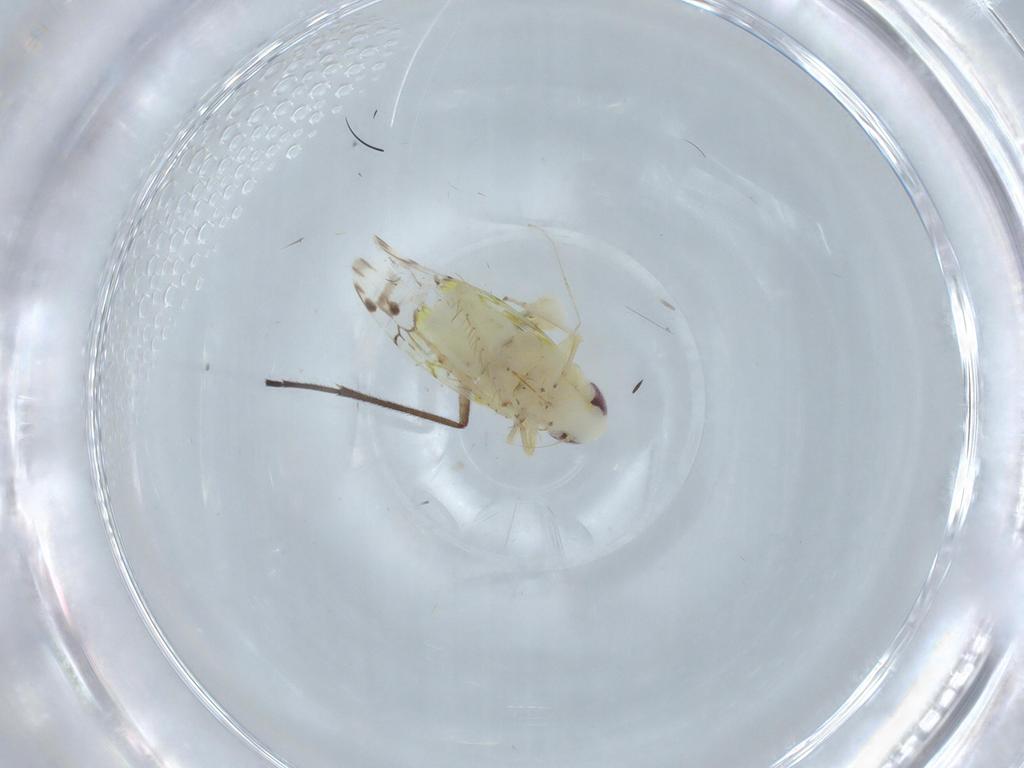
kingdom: Animalia
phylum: Arthropoda
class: Insecta
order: Hemiptera
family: Cicadellidae
